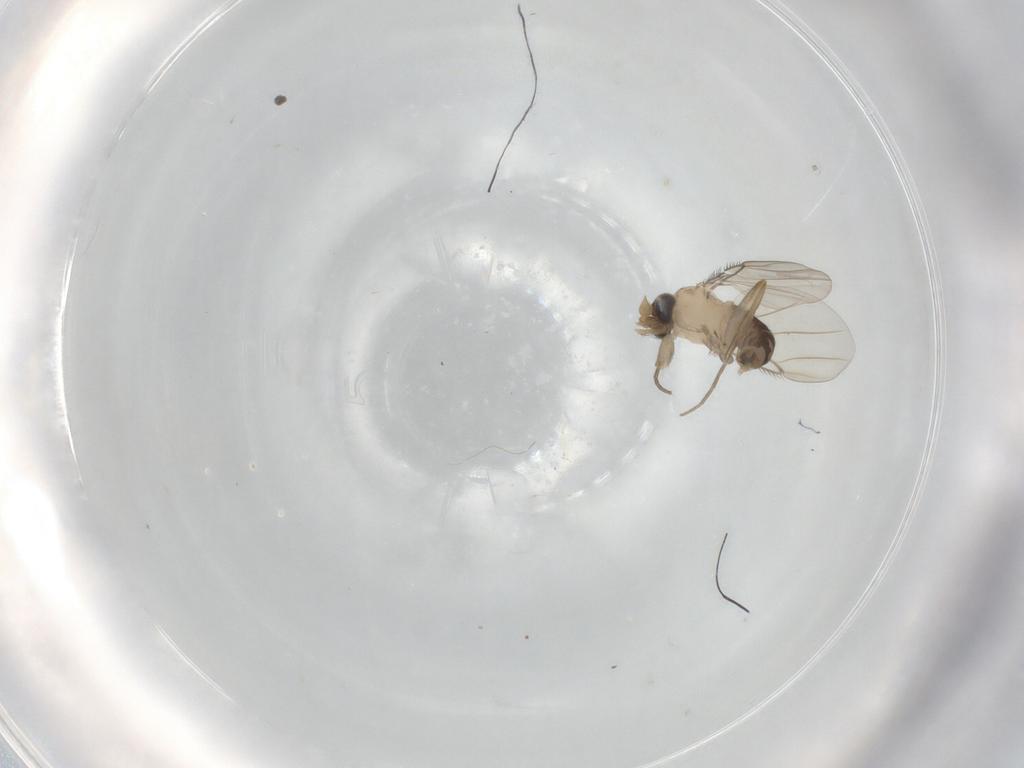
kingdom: Animalia
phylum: Arthropoda
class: Insecta
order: Diptera
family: Cecidomyiidae
